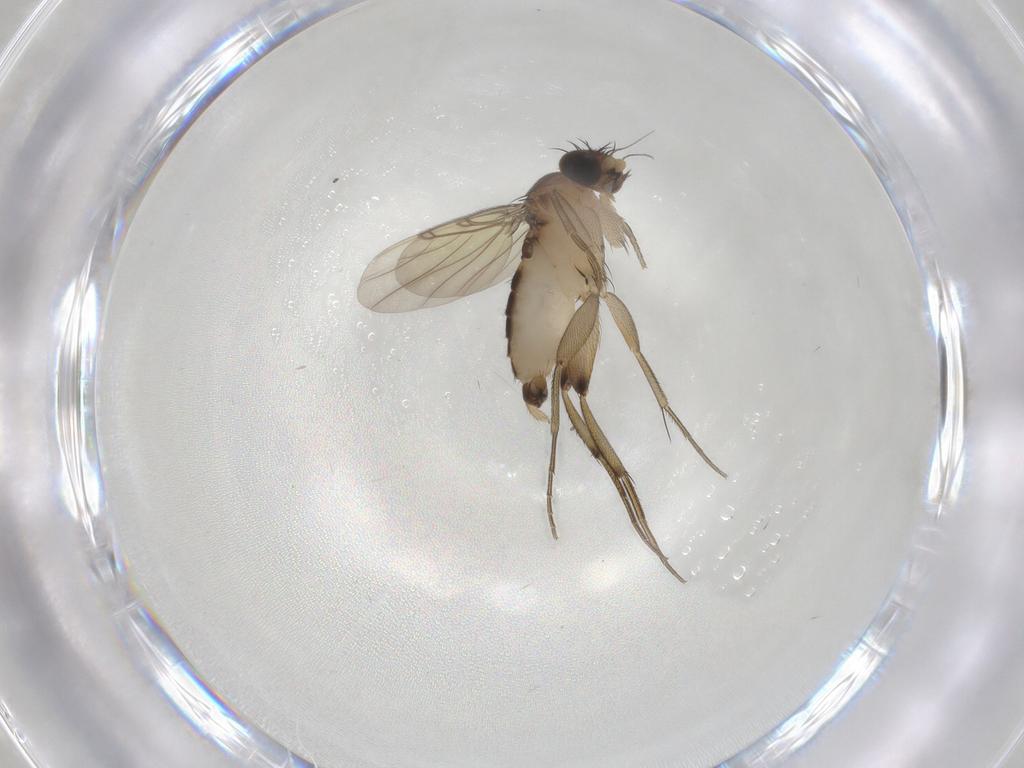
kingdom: Animalia
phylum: Arthropoda
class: Insecta
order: Diptera
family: Phoridae
